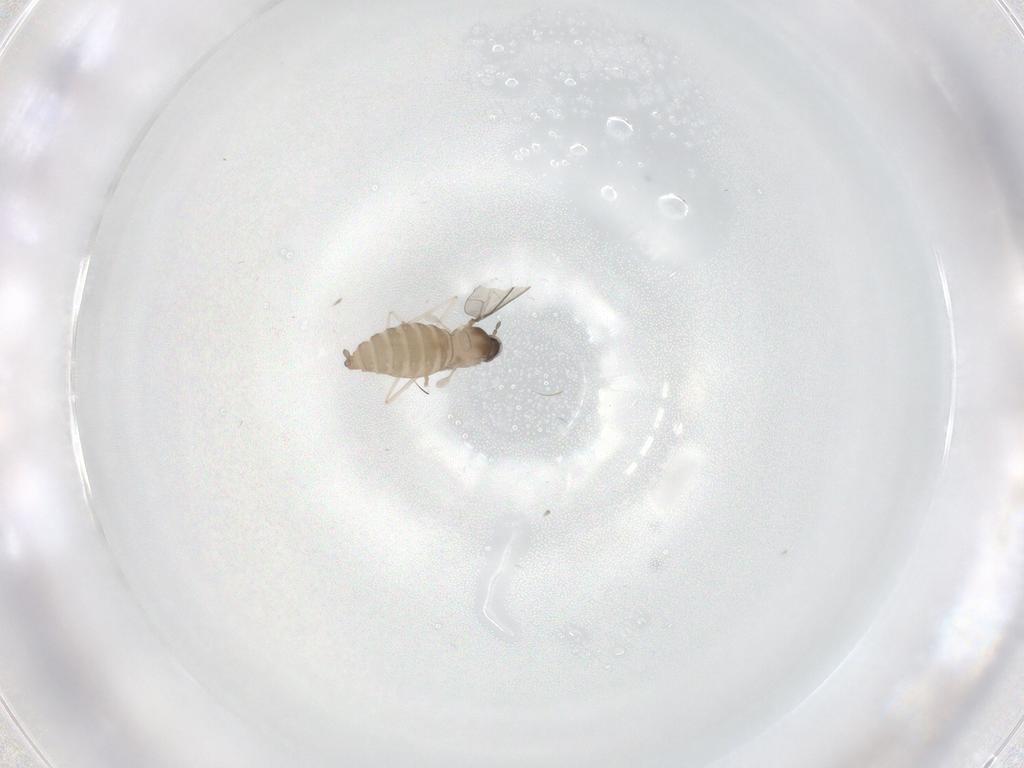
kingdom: Animalia
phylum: Arthropoda
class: Insecta
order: Diptera
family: Cecidomyiidae
